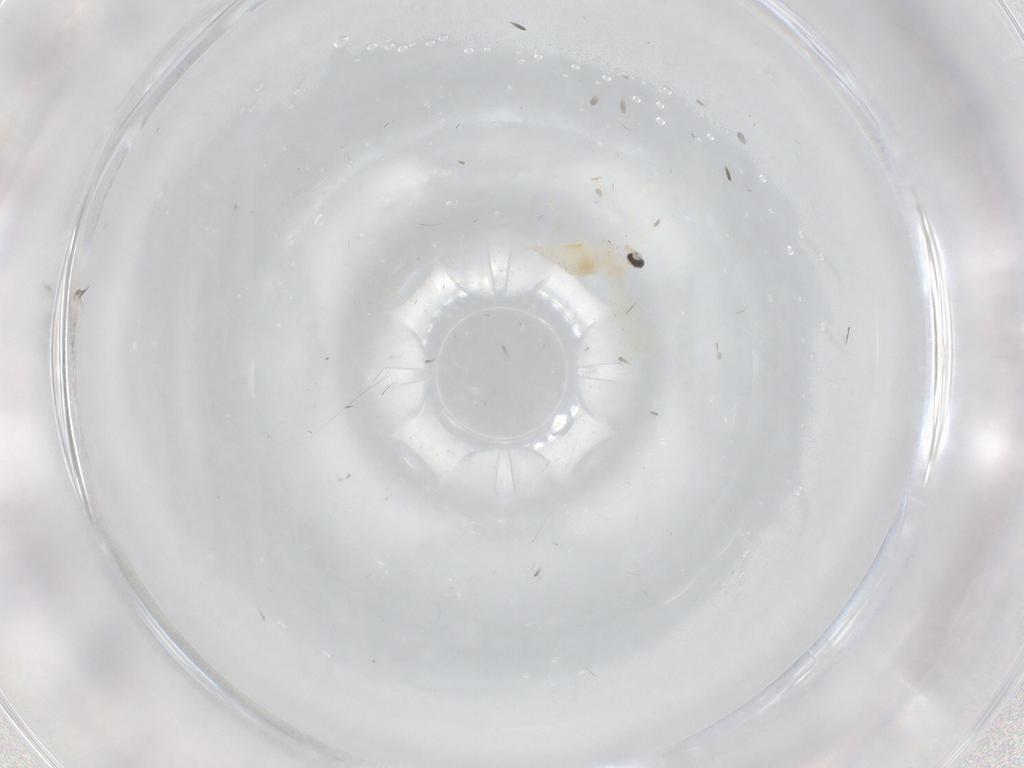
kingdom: Animalia
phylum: Arthropoda
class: Insecta
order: Diptera
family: Cecidomyiidae
